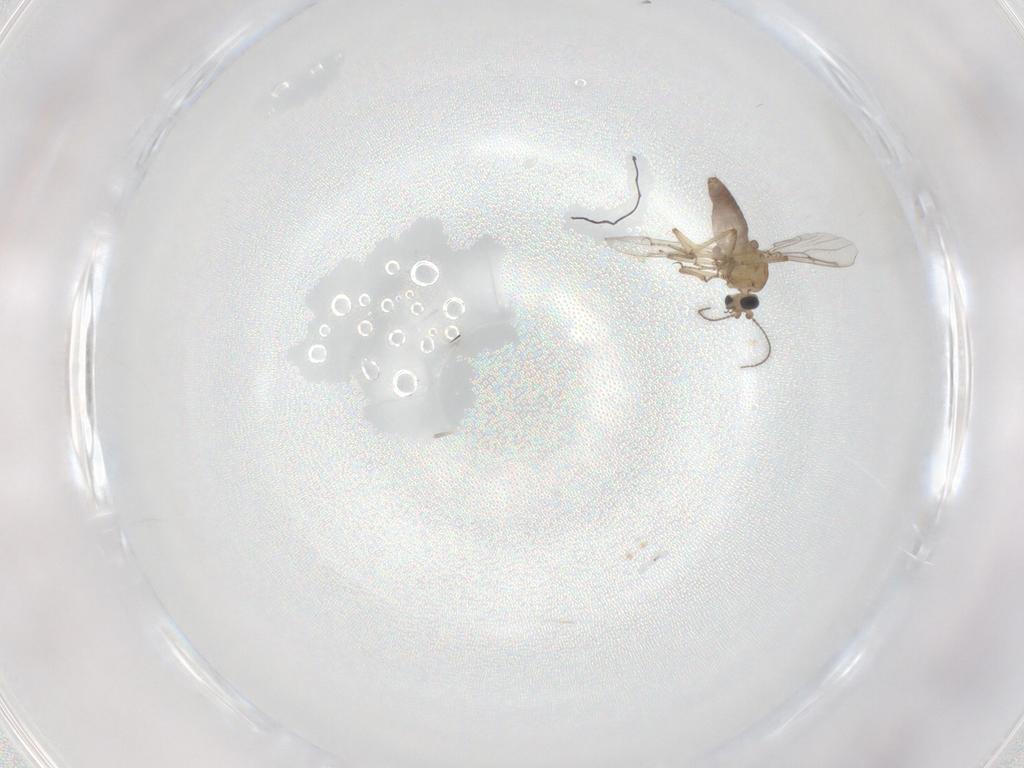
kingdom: Animalia
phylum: Arthropoda
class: Insecta
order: Diptera
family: Ceratopogonidae
